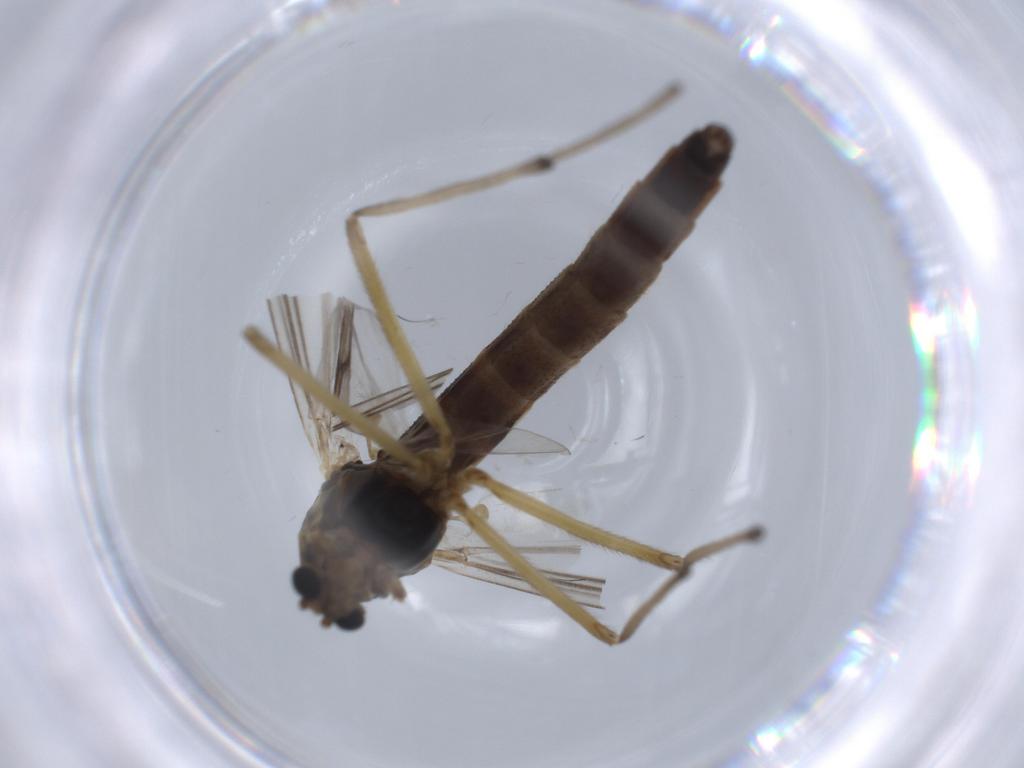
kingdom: Animalia
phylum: Arthropoda
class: Insecta
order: Diptera
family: Chironomidae
